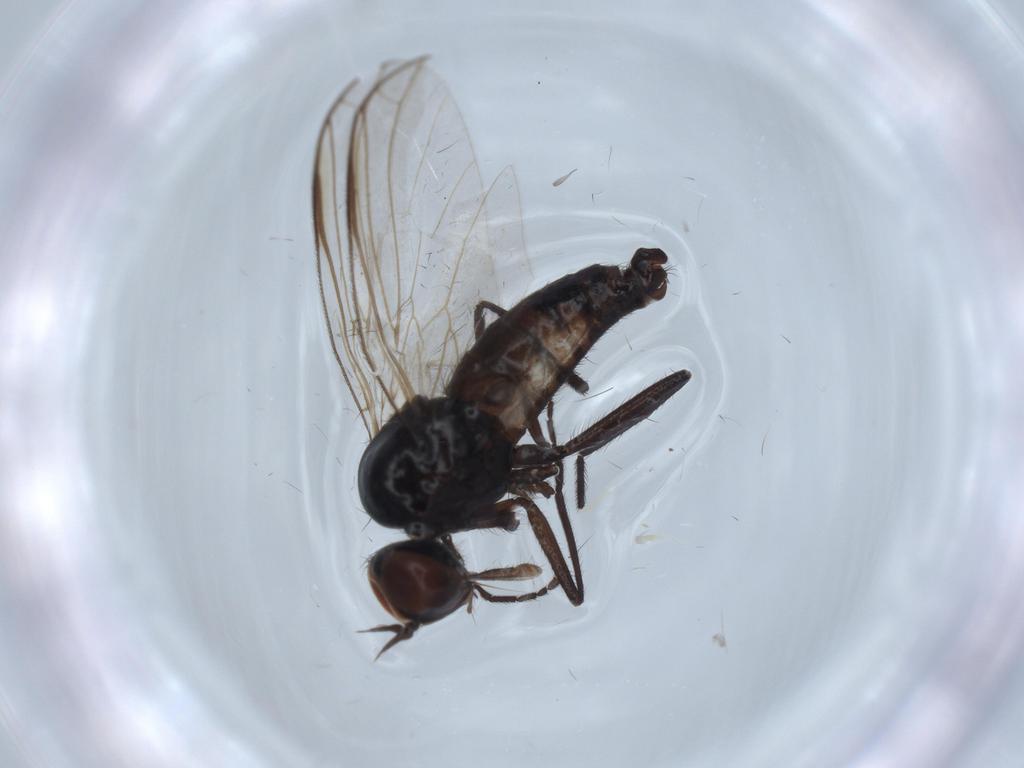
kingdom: Animalia
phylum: Arthropoda
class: Insecta
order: Diptera
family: Empididae
